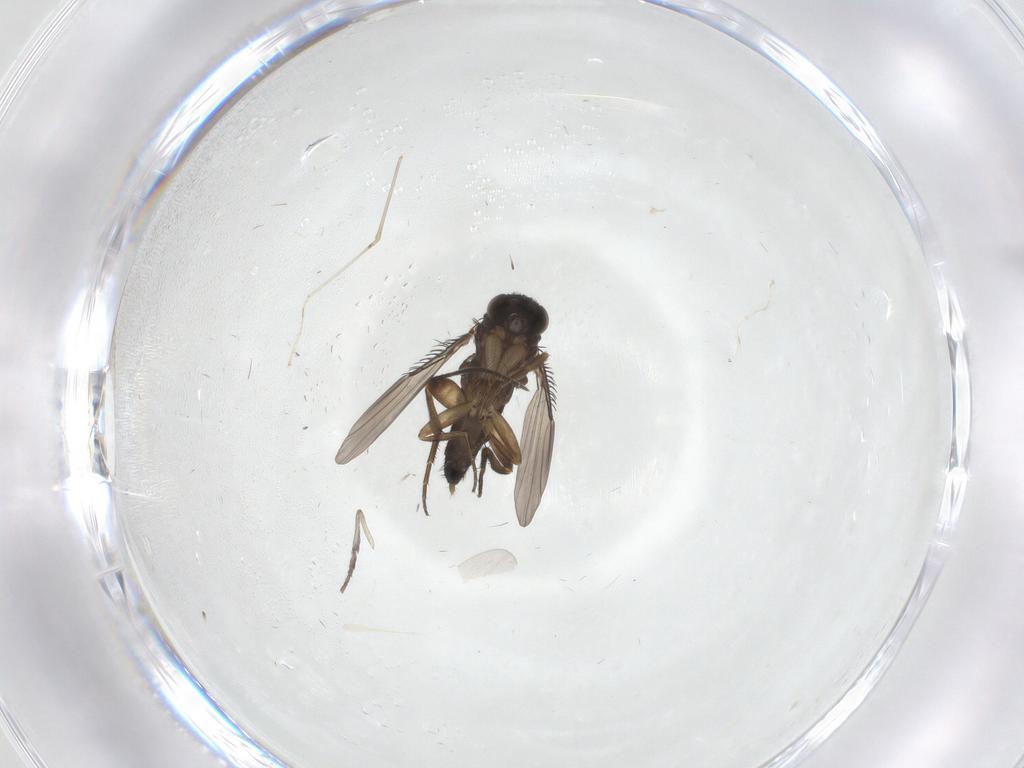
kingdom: Animalia
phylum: Arthropoda
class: Insecta
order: Diptera
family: Phoridae
